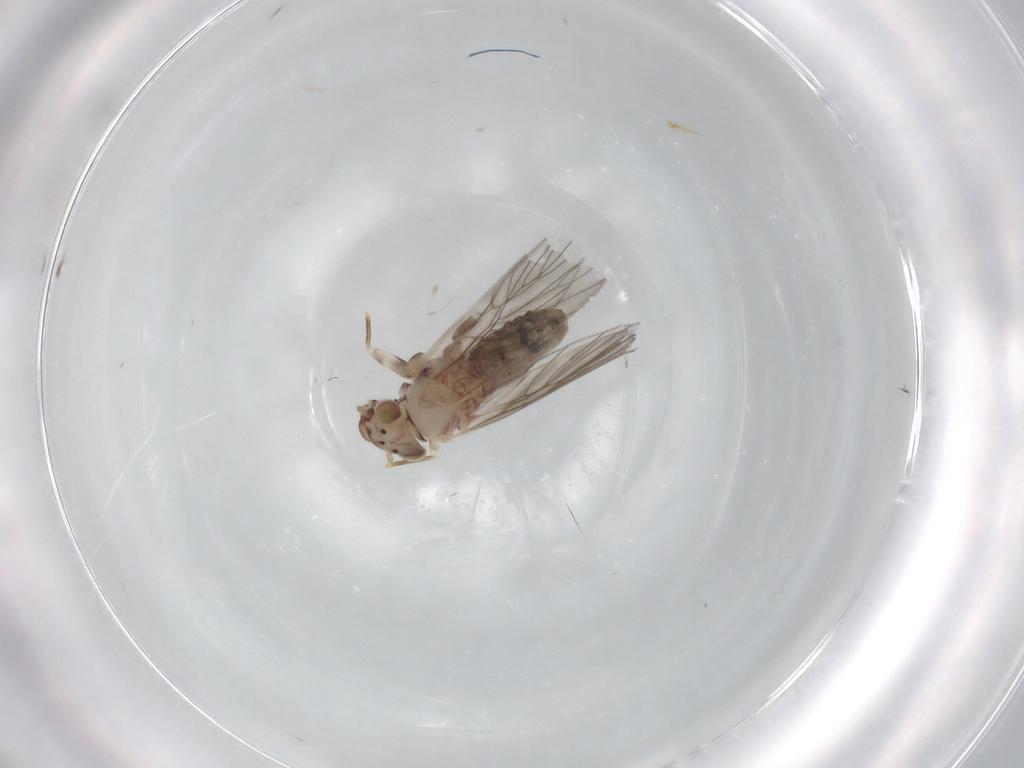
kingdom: Animalia
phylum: Arthropoda
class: Insecta
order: Psocodea
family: Lepidopsocidae
